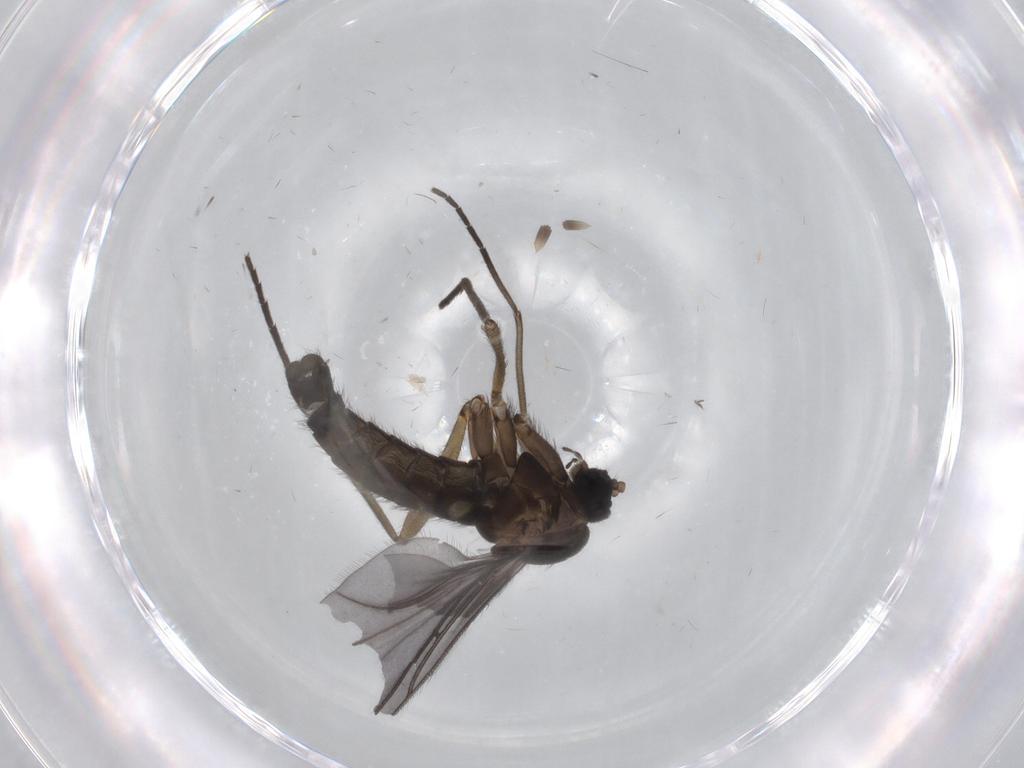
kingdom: Animalia
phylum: Arthropoda
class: Insecta
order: Diptera
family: Sciaridae
